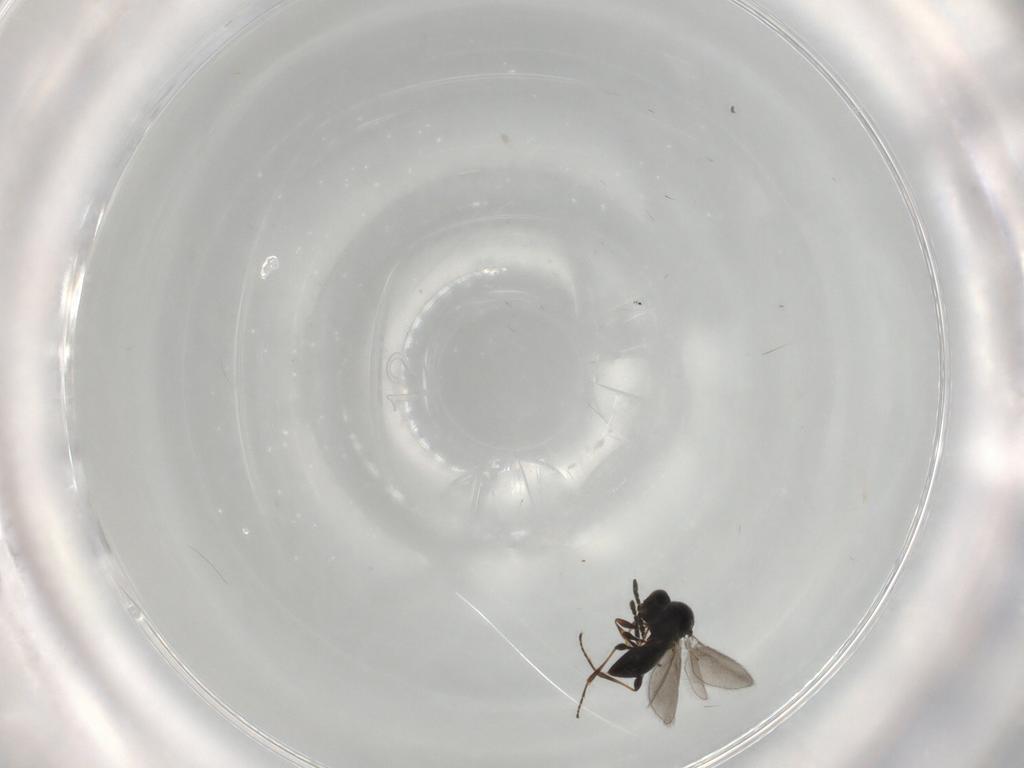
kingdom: Animalia
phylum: Arthropoda
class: Insecta
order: Hymenoptera
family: Platygastridae
